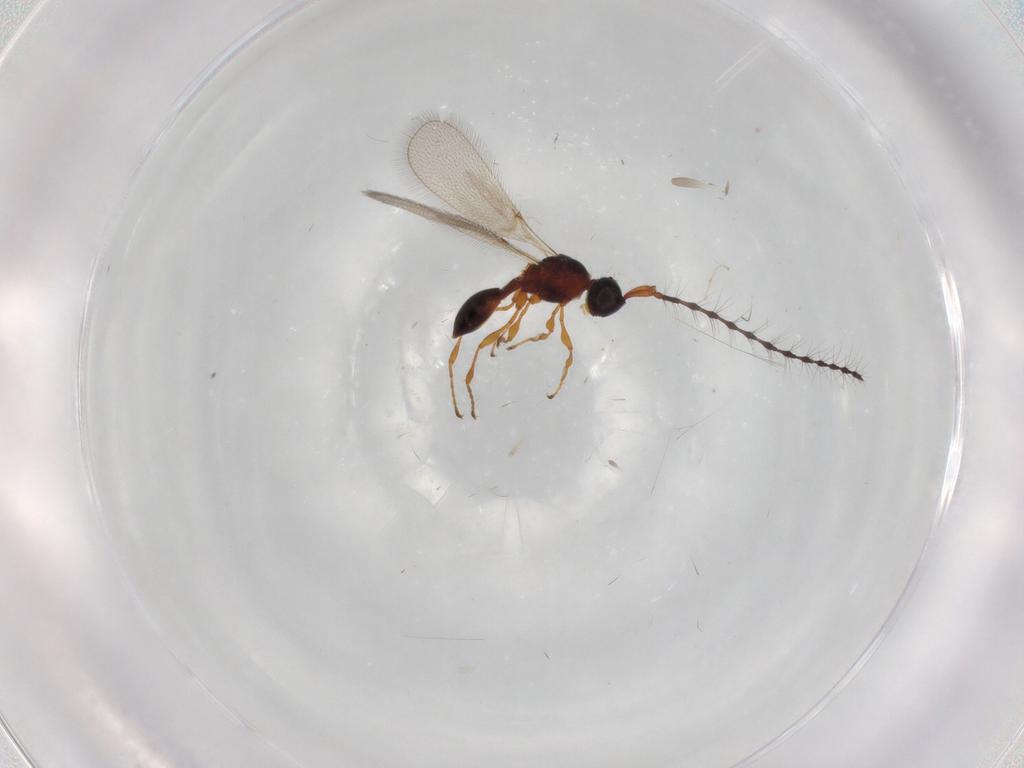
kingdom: Animalia
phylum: Arthropoda
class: Insecta
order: Hymenoptera
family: Diapriidae
